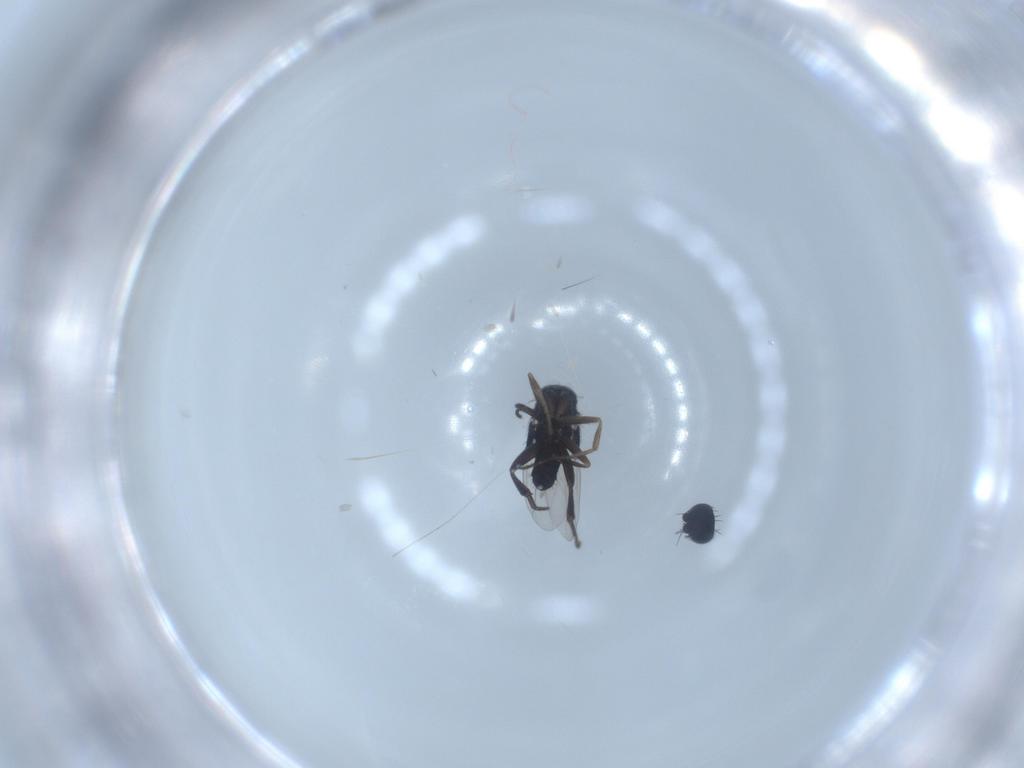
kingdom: Animalia
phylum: Arthropoda
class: Insecta
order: Diptera
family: Phoridae
